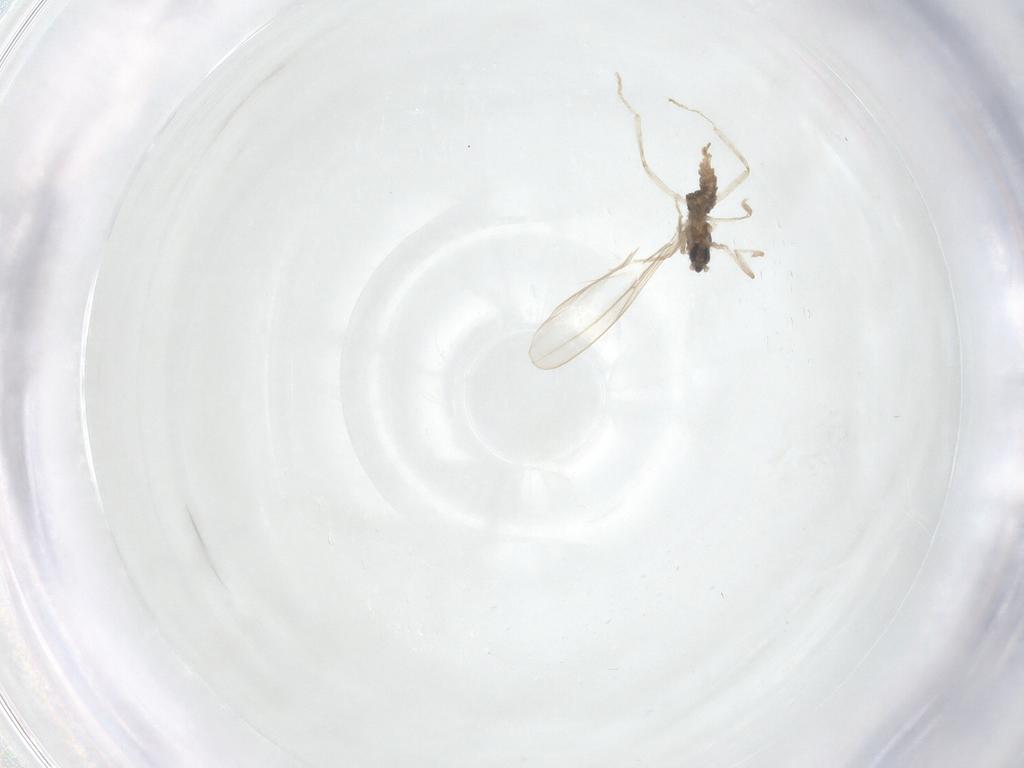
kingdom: Animalia
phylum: Arthropoda
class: Insecta
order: Diptera
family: Cecidomyiidae
